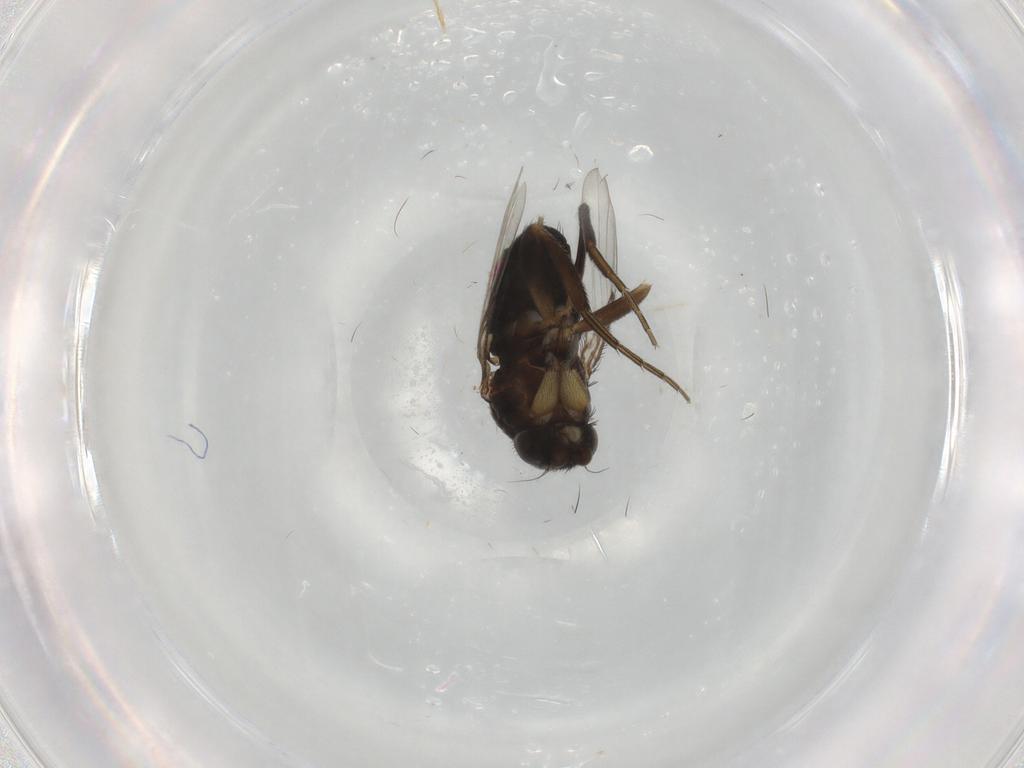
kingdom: Animalia
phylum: Arthropoda
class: Insecta
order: Diptera
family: Phoridae
